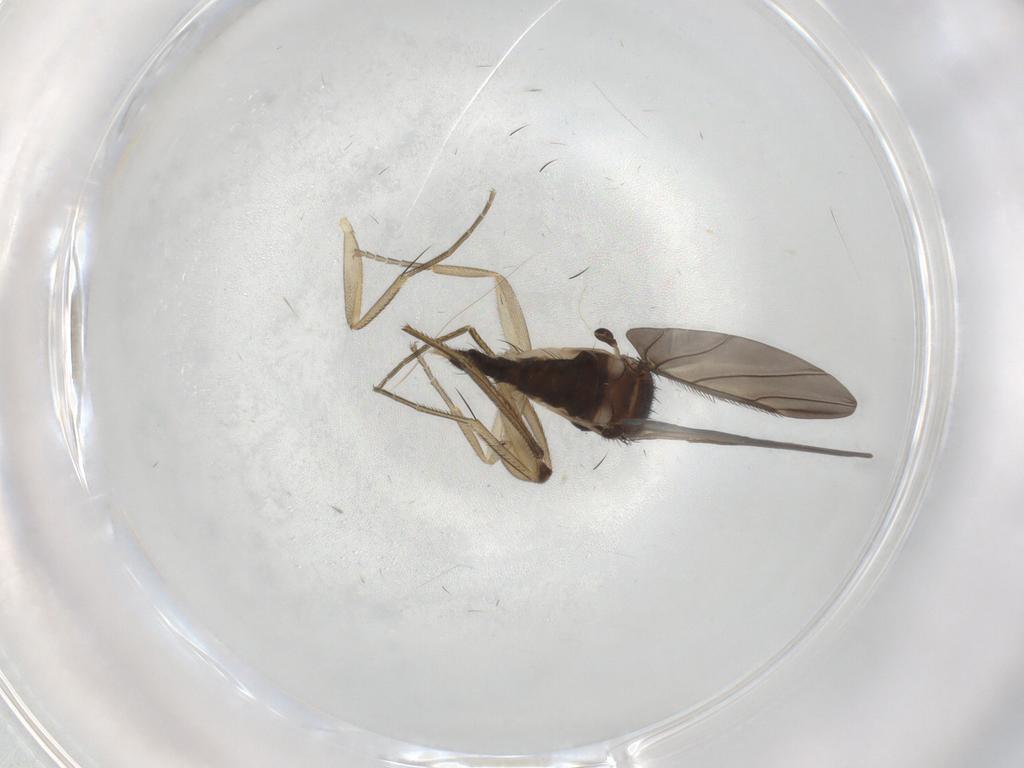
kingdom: Animalia
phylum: Arthropoda
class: Insecta
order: Diptera
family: Phoridae
